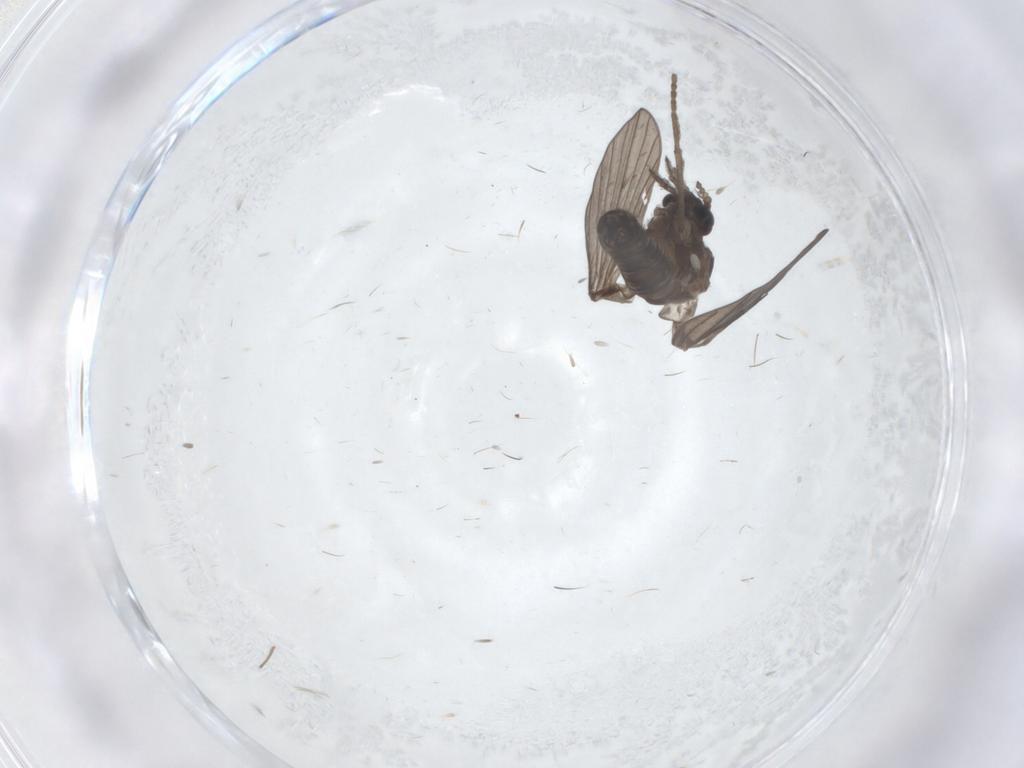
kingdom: Animalia
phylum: Arthropoda
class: Insecta
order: Diptera
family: Psychodidae
